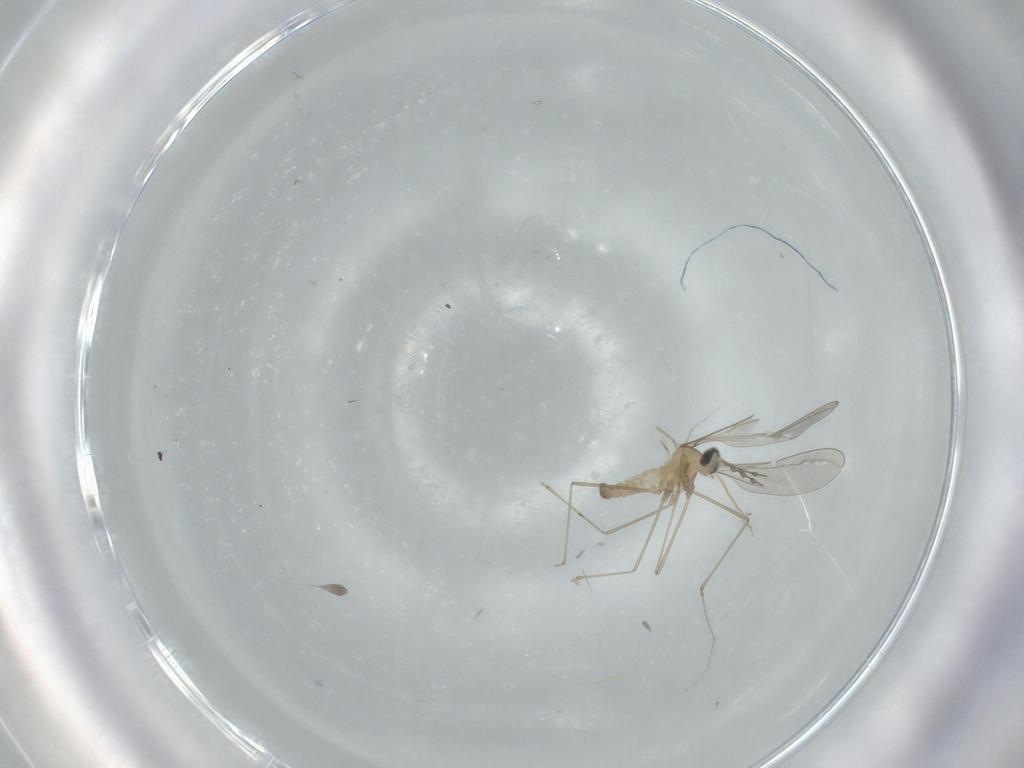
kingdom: Animalia
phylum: Arthropoda
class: Insecta
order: Diptera
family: Cecidomyiidae
